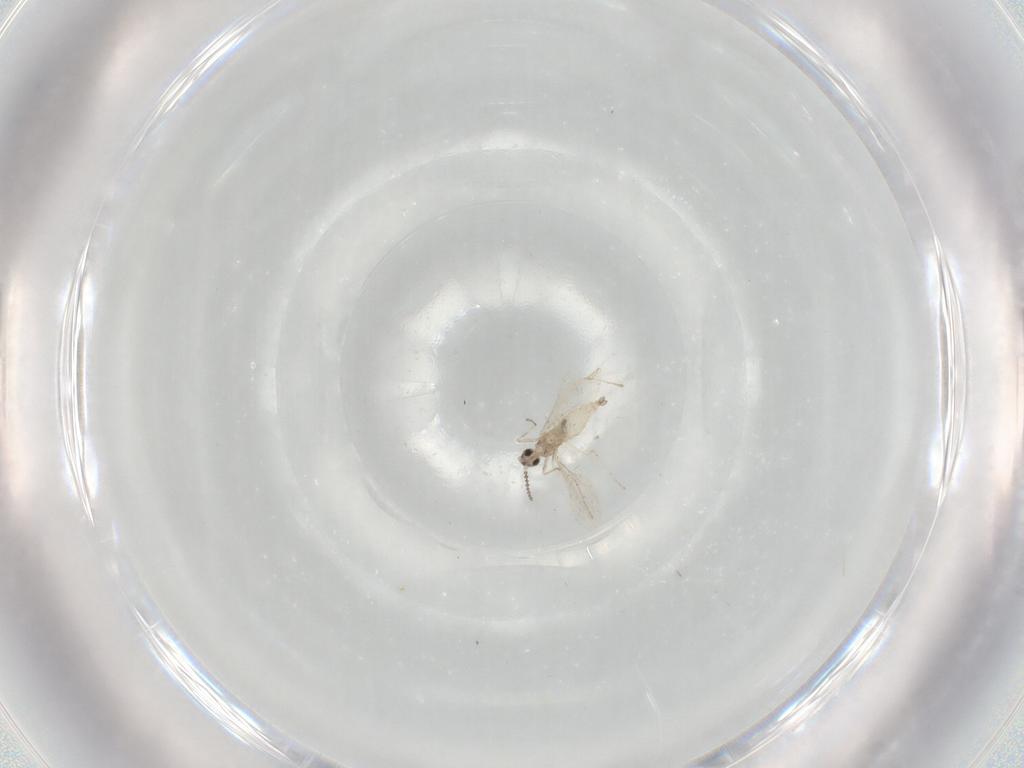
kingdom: Animalia
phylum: Arthropoda
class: Insecta
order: Diptera
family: Cecidomyiidae
